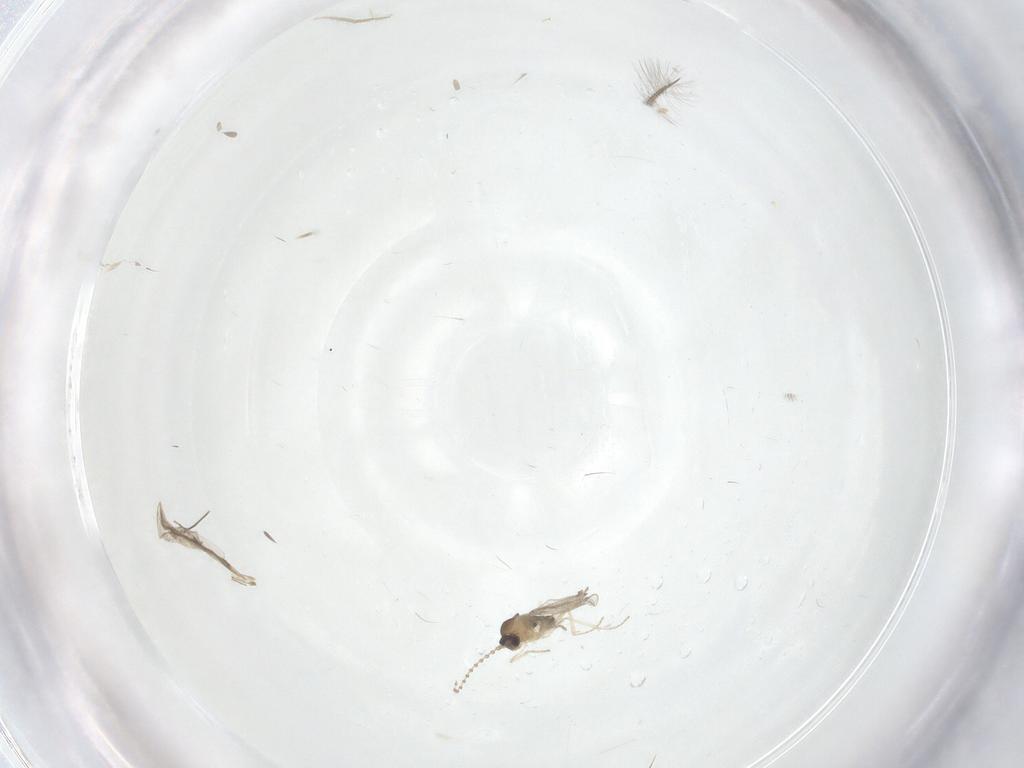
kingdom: Animalia
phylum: Arthropoda
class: Insecta
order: Diptera
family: Cecidomyiidae
